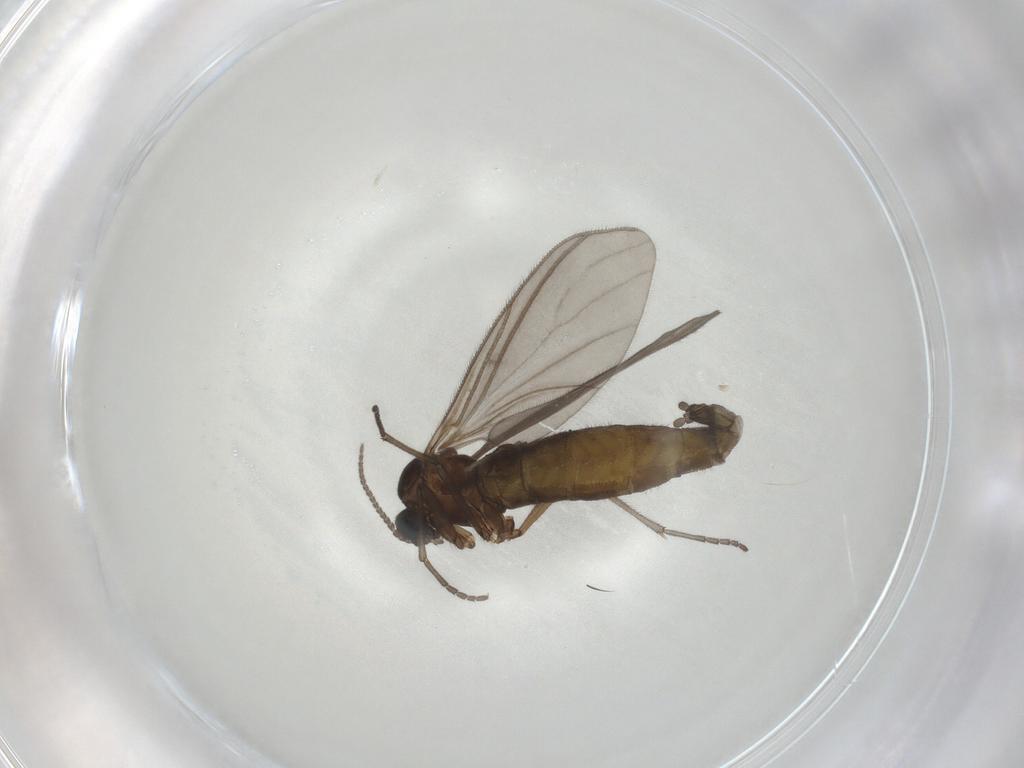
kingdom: Animalia
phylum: Arthropoda
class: Insecta
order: Diptera
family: Sciaridae
